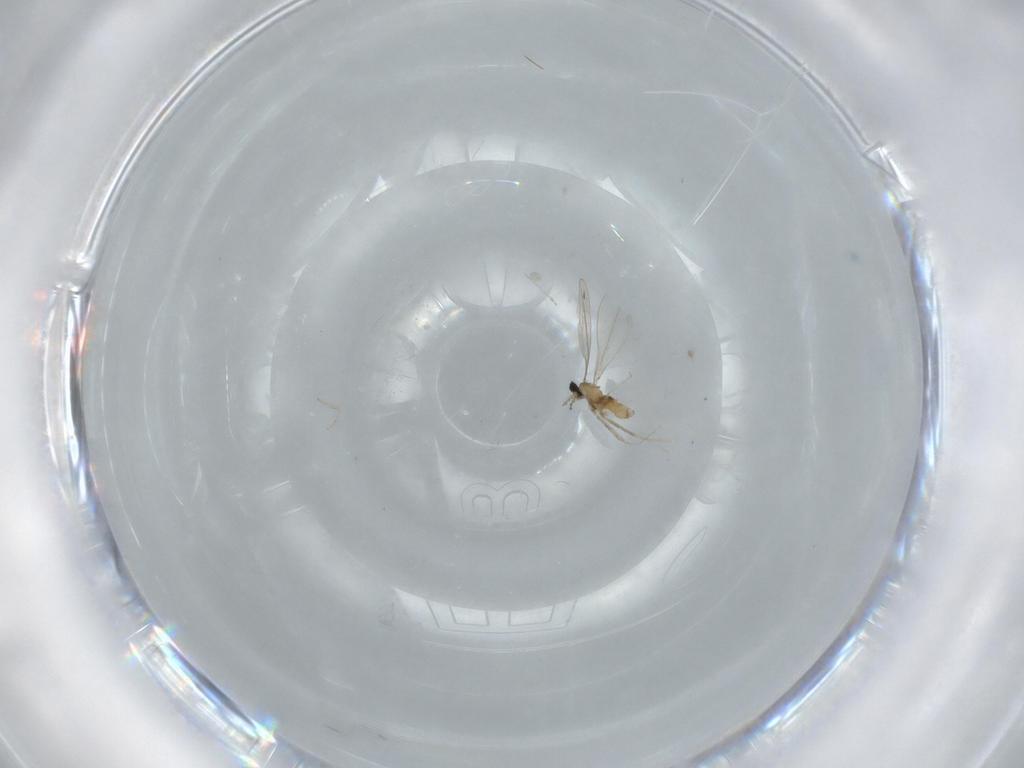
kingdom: Animalia
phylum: Arthropoda
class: Insecta
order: Diptera
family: Cecidomyiidae
